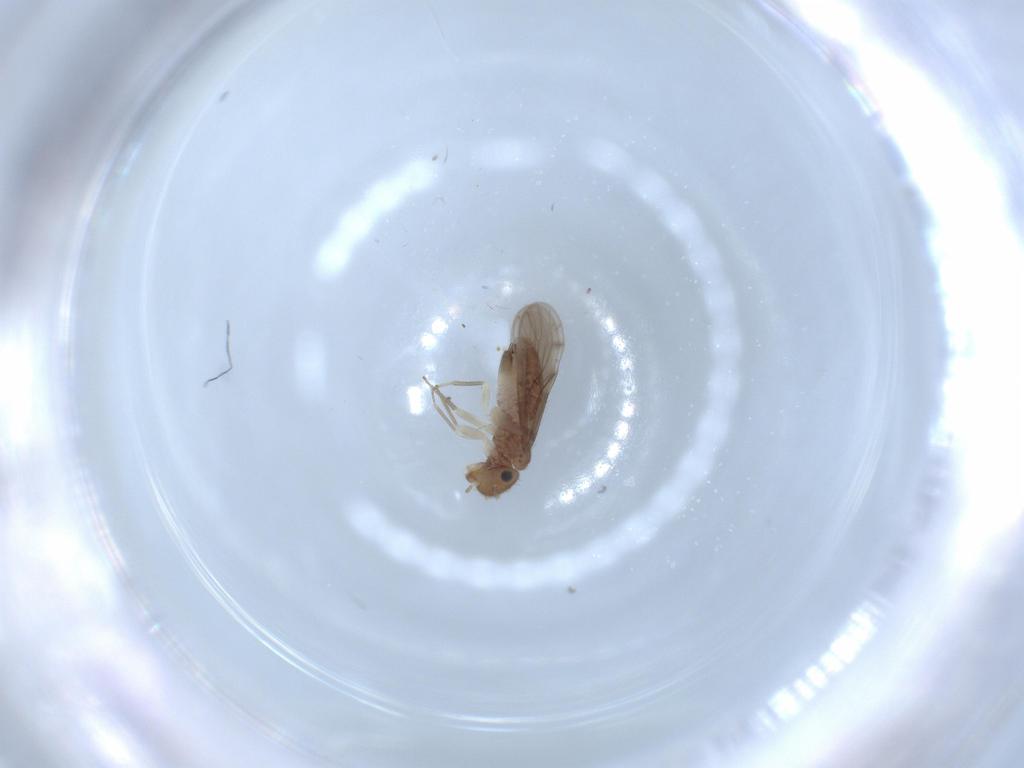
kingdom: Animalia
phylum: Arthropoda
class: Insecta
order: Psocodea
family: Ectopsocidae
